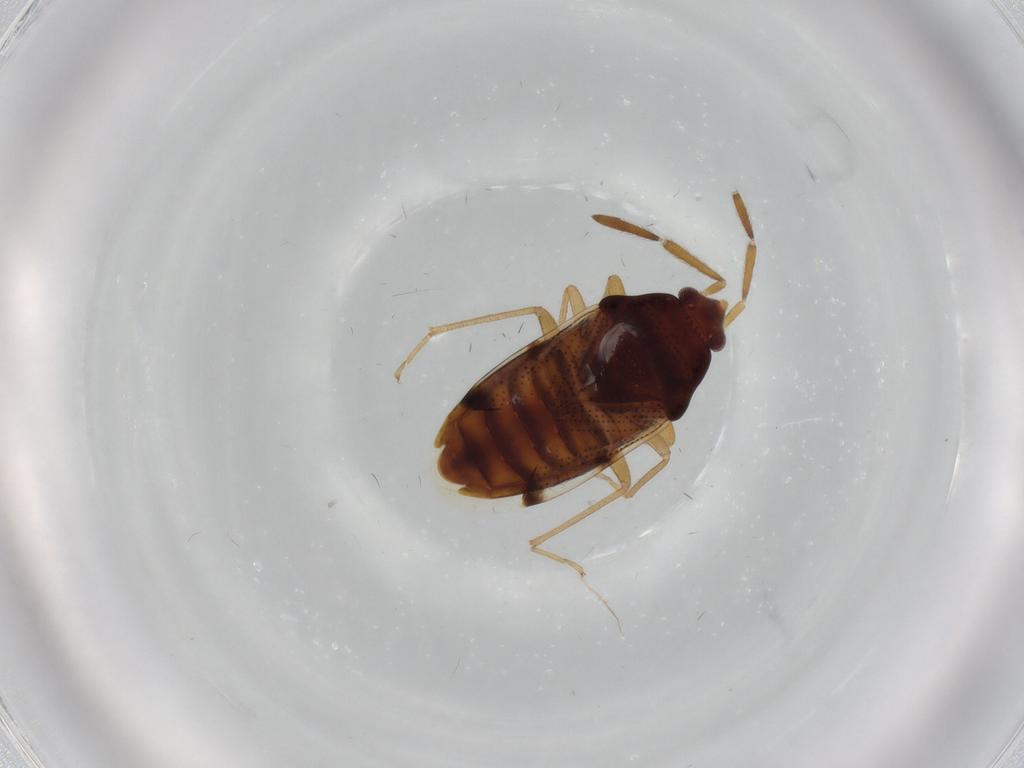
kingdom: Animalia
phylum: Arthropoda
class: Insecta
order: Hemiptera
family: Rhyparochromidae
